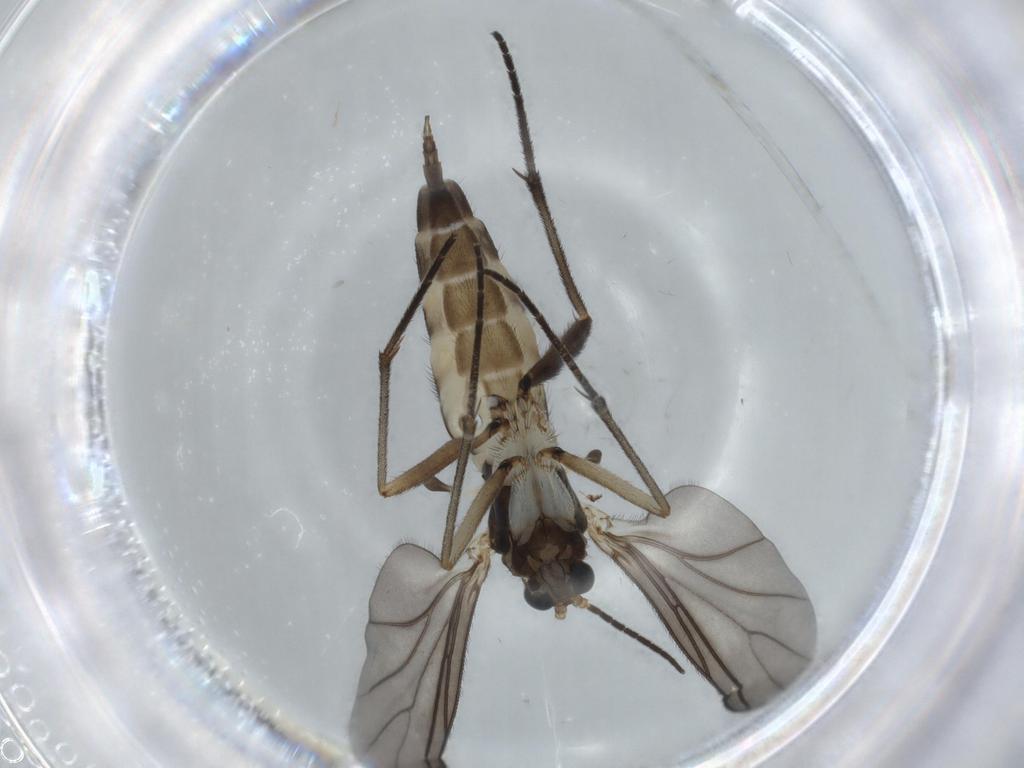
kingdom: Animalia
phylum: Arthropoda
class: Insecta
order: Diptera
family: Sciaridae
